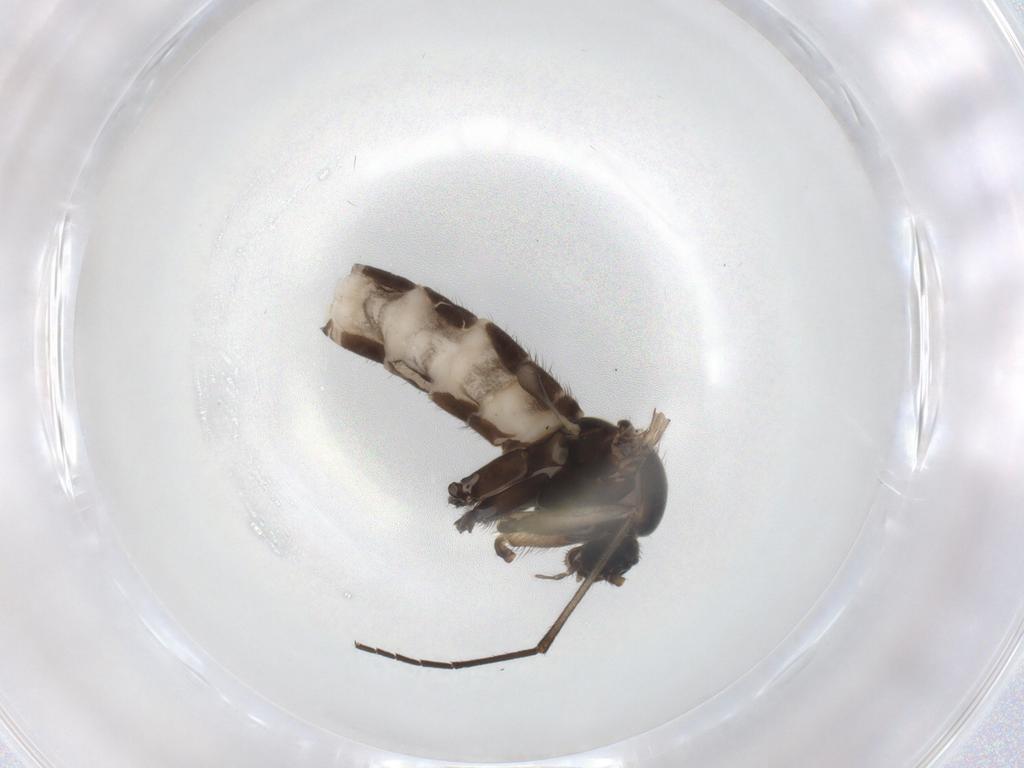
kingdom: Animalia
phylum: Arthropoda
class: Insecta
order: Diptera
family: Sciaridae
